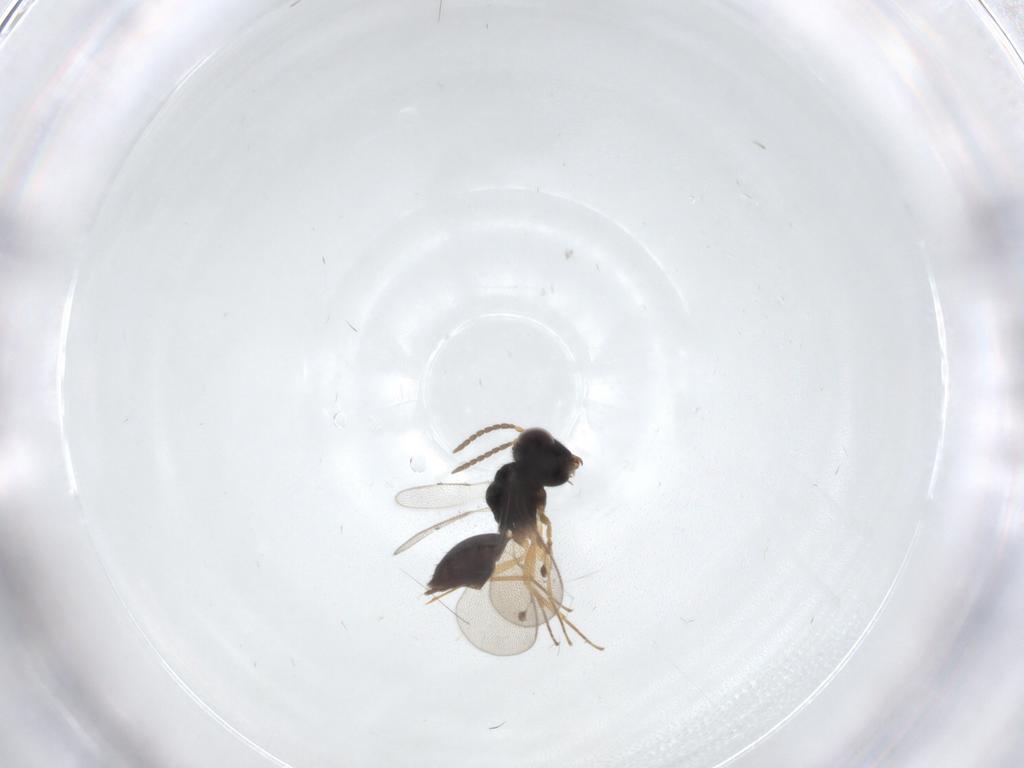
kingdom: Animalia
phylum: Arthropoda
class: Insecta
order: Hymenoptera
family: Pteromalidae
